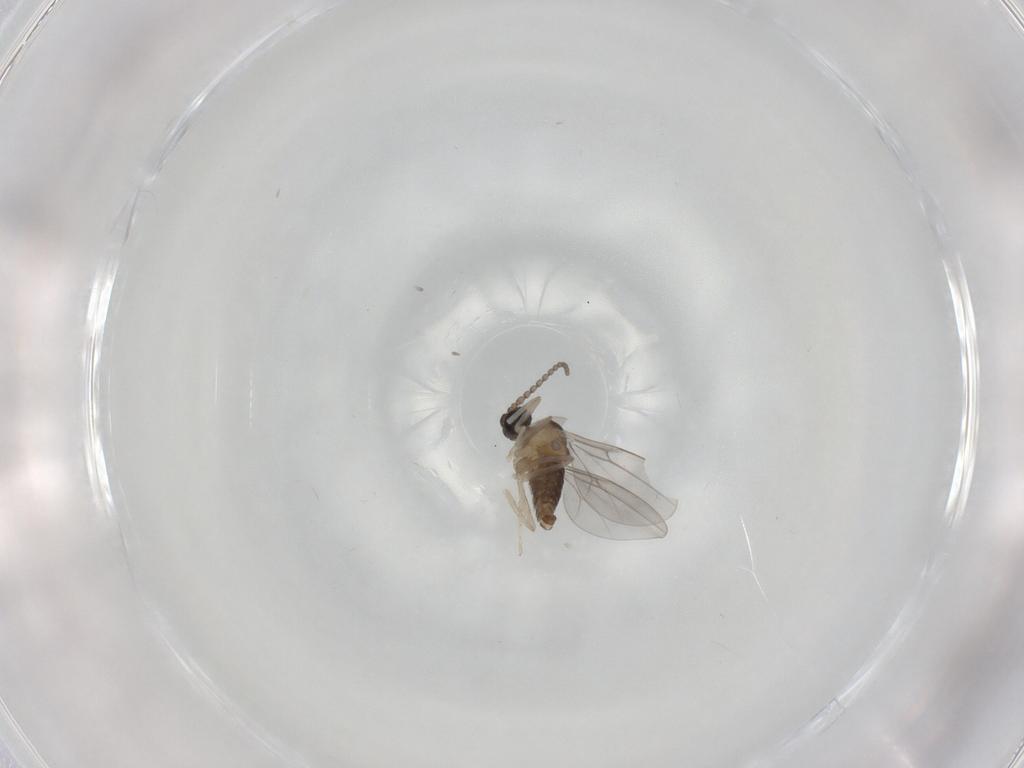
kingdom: Animalia
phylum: Arthropoda
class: Insecta
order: Diptera
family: Cecidomyiidae
